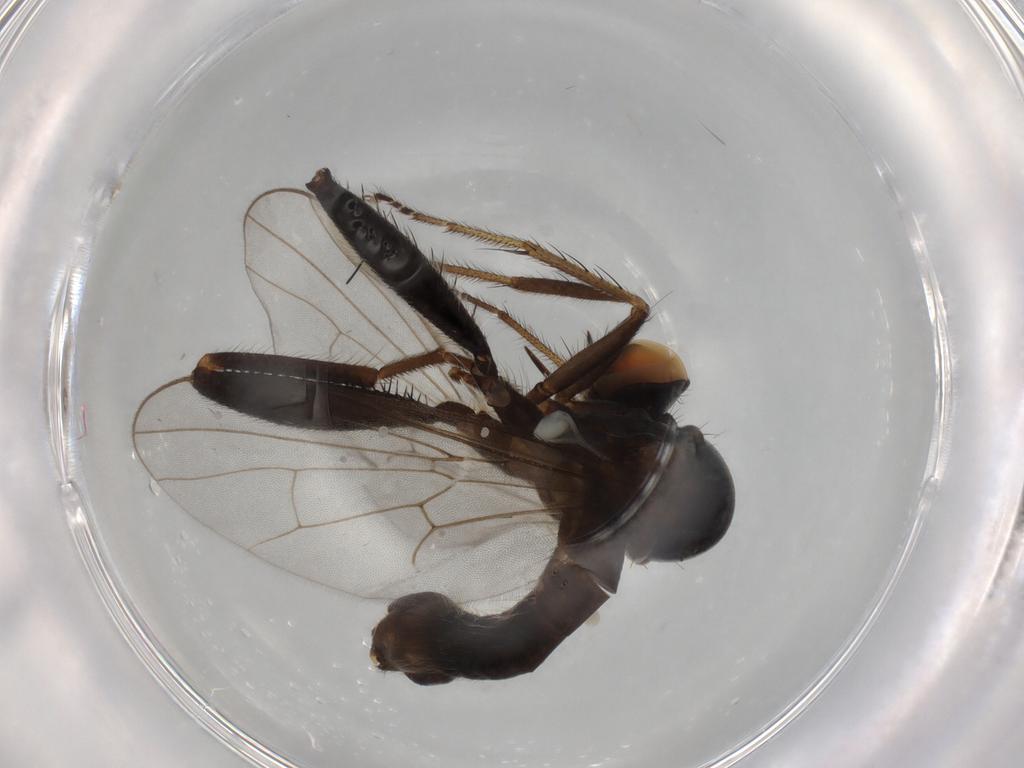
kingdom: Animalia
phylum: Arthropoda
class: Insecta
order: Diptera
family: Hybotidae
